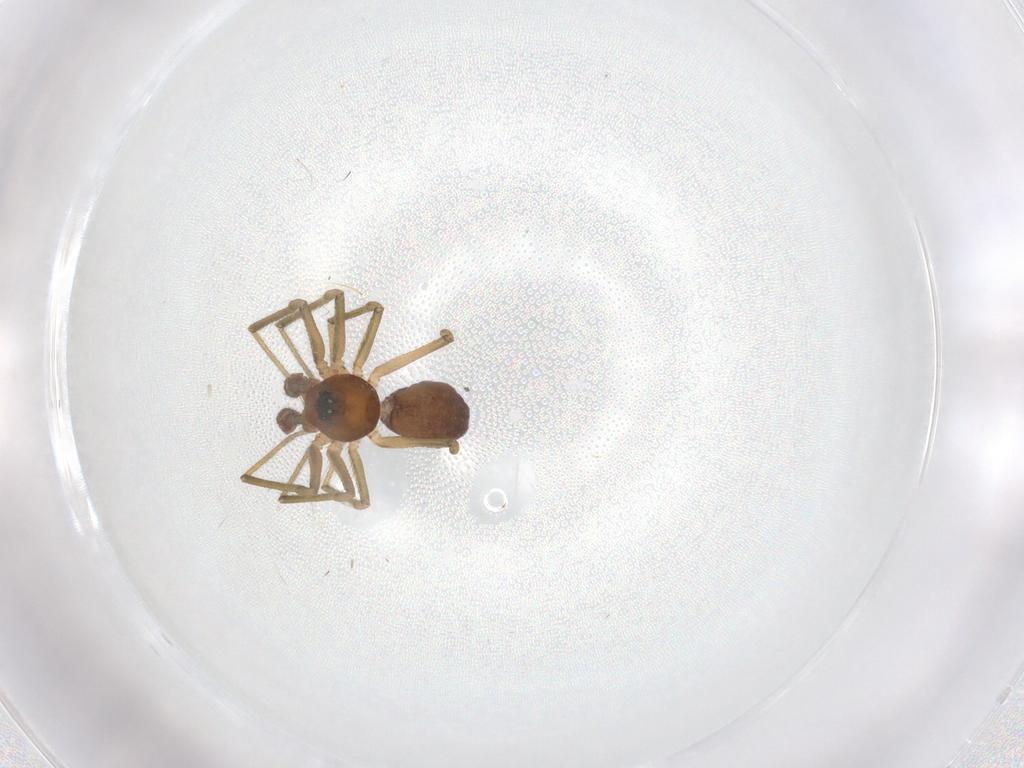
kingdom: Animalia
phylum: Arthropoda
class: Arachnida
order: Araneae
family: Linyphiidae
